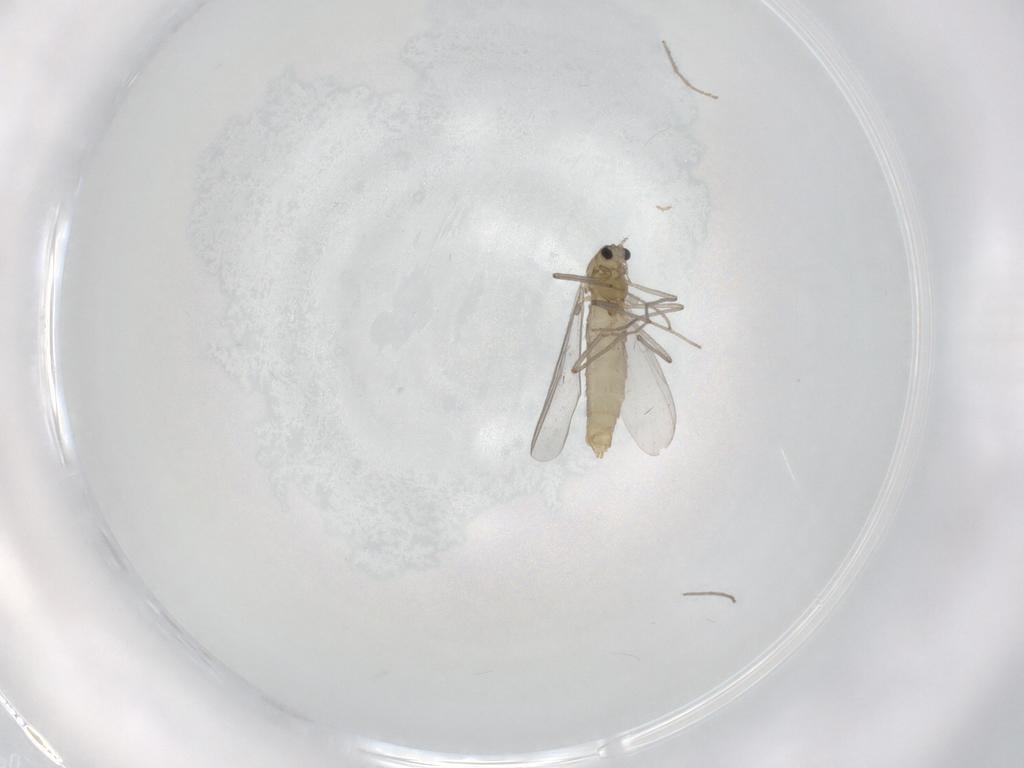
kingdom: Animalia
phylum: Arthropoda
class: Insecta
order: Diptera
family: Chironomidae
